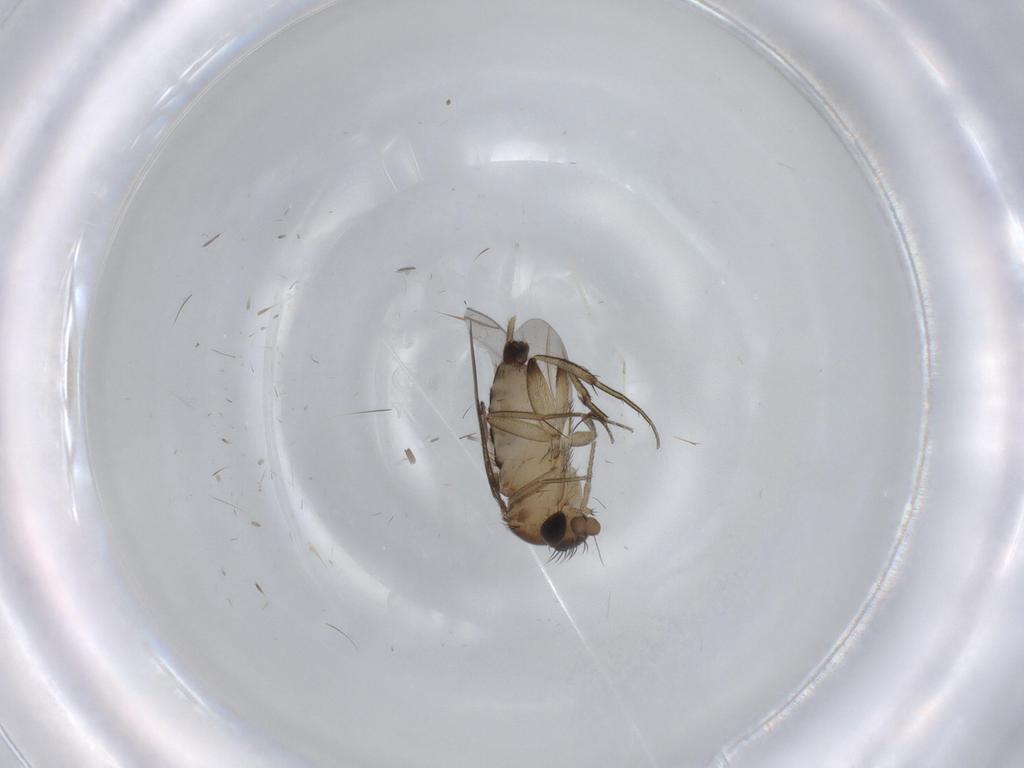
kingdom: Animalia
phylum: Arthropoda
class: Insecta
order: Diptera
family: Phoridae
